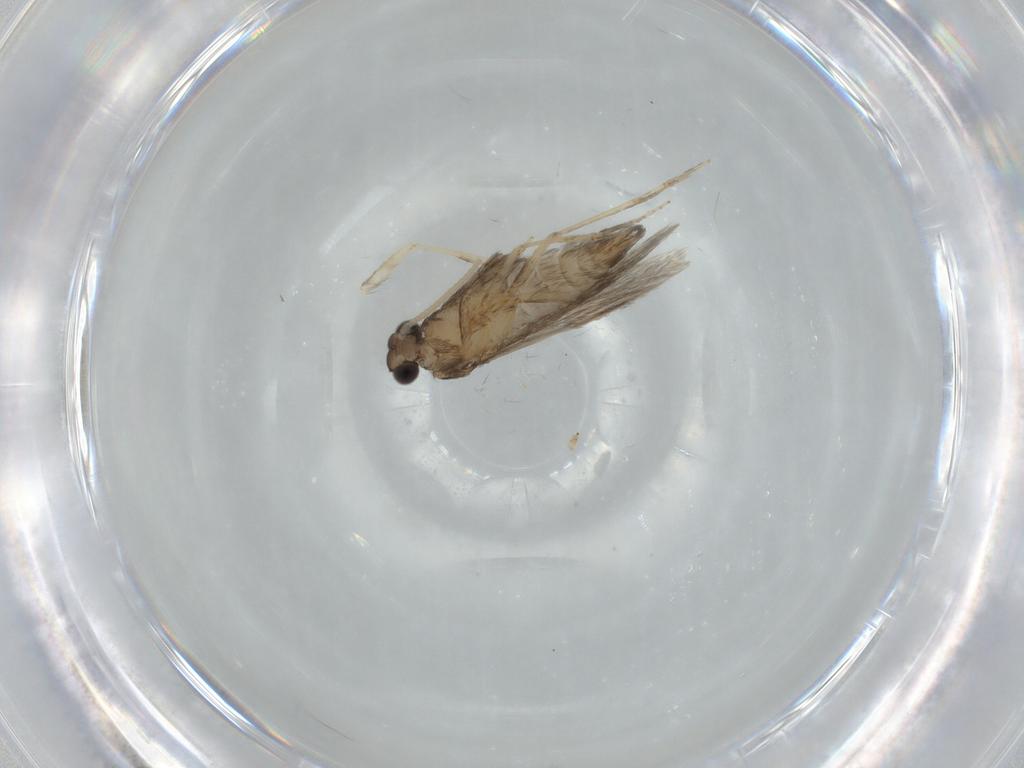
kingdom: Animalia
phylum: Arthropoda
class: Insecta
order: Trichoptera
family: Hydroptilidae
